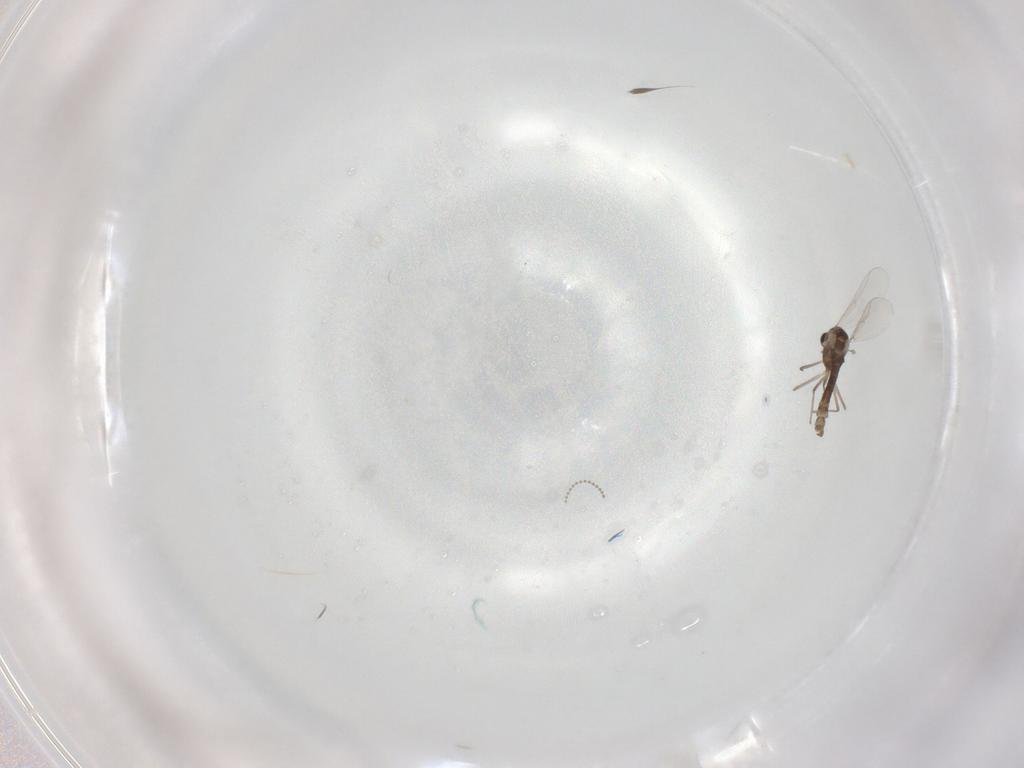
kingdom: Animalia
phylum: Arthropoda
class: Insecta
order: Diptera
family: Chironomidae
